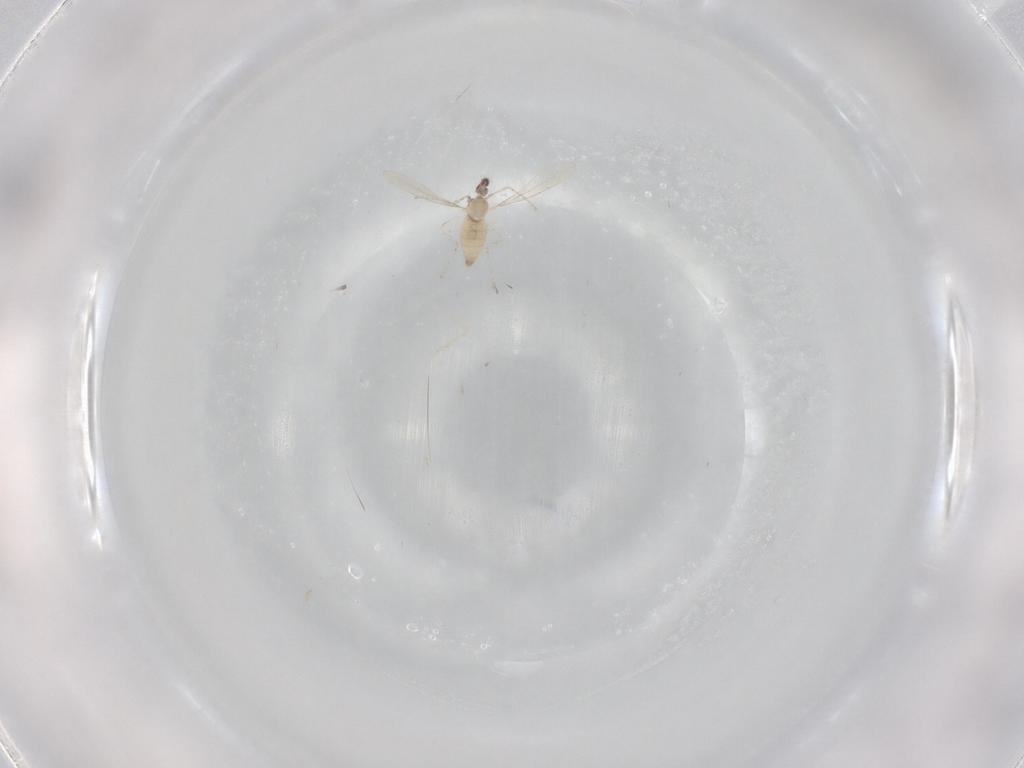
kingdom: Animalia
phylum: Arthropoda
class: Insecta
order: Diptera
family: Cecidomyiidae
